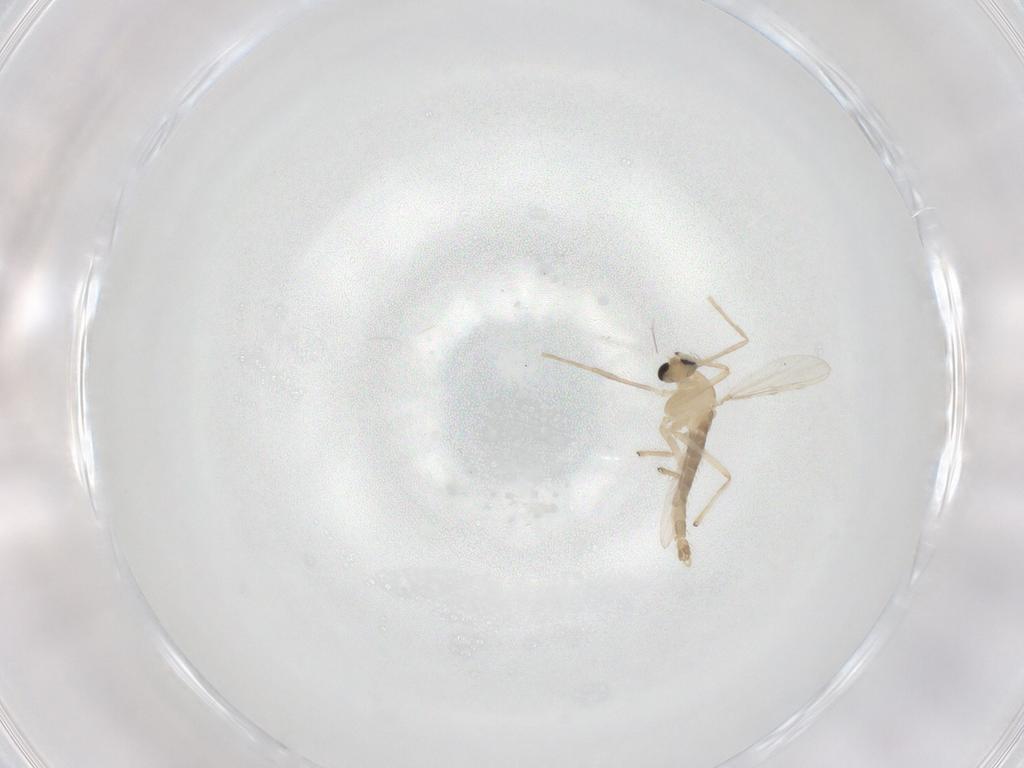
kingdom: Animalia
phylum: Arthropoda
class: Insecta
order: Diptera
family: Chironomidae
